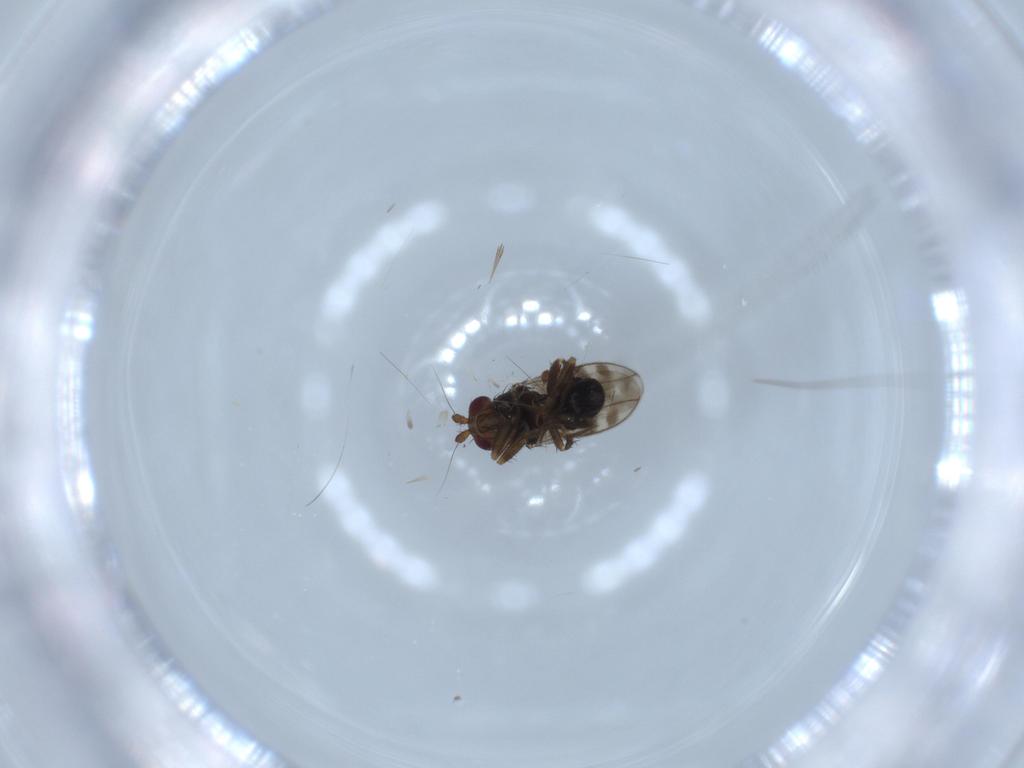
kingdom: Animalia
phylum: Arthropoda
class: Insecta
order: Diptera
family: Sphaeroceridae
